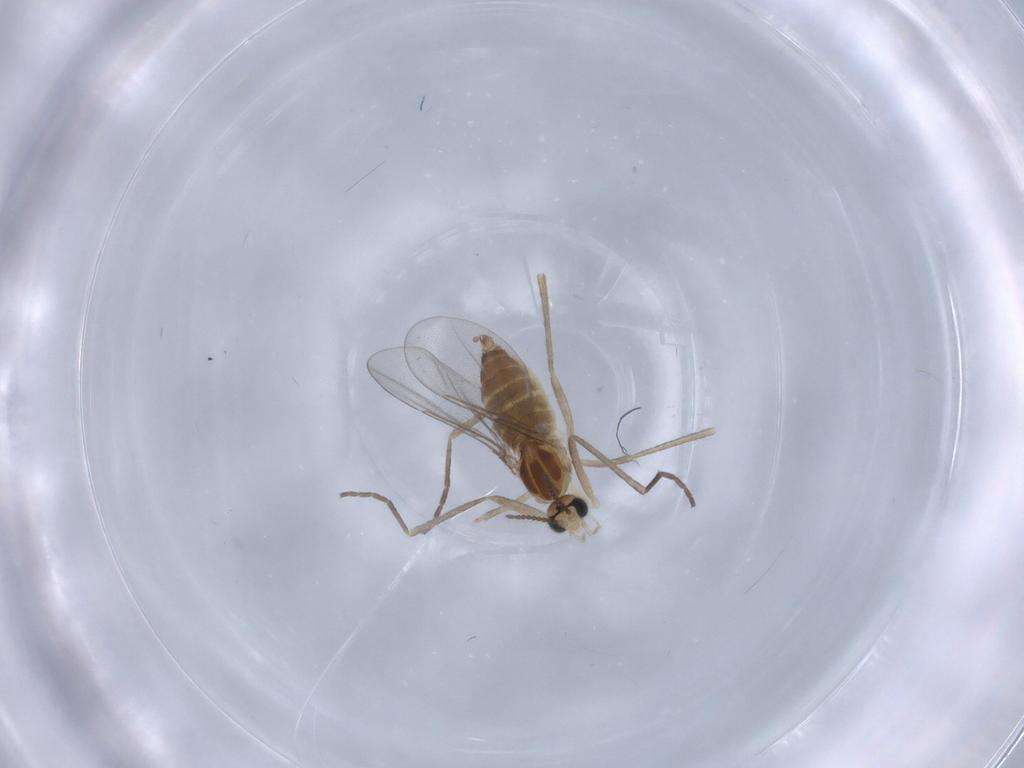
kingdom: Animalia
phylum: Arthropoda
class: Insecta
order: Diptera
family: Cecidomyiidae
